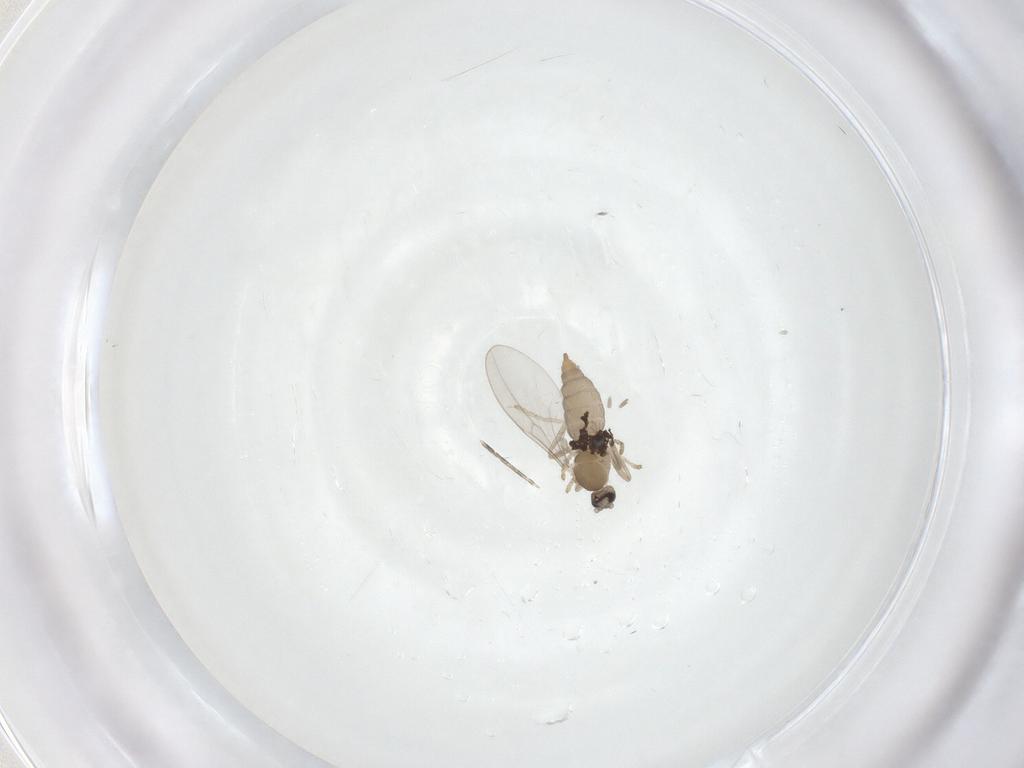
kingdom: Animalia
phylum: Arthropoda
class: Insecta
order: Diptera
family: Cecidomyiidae
